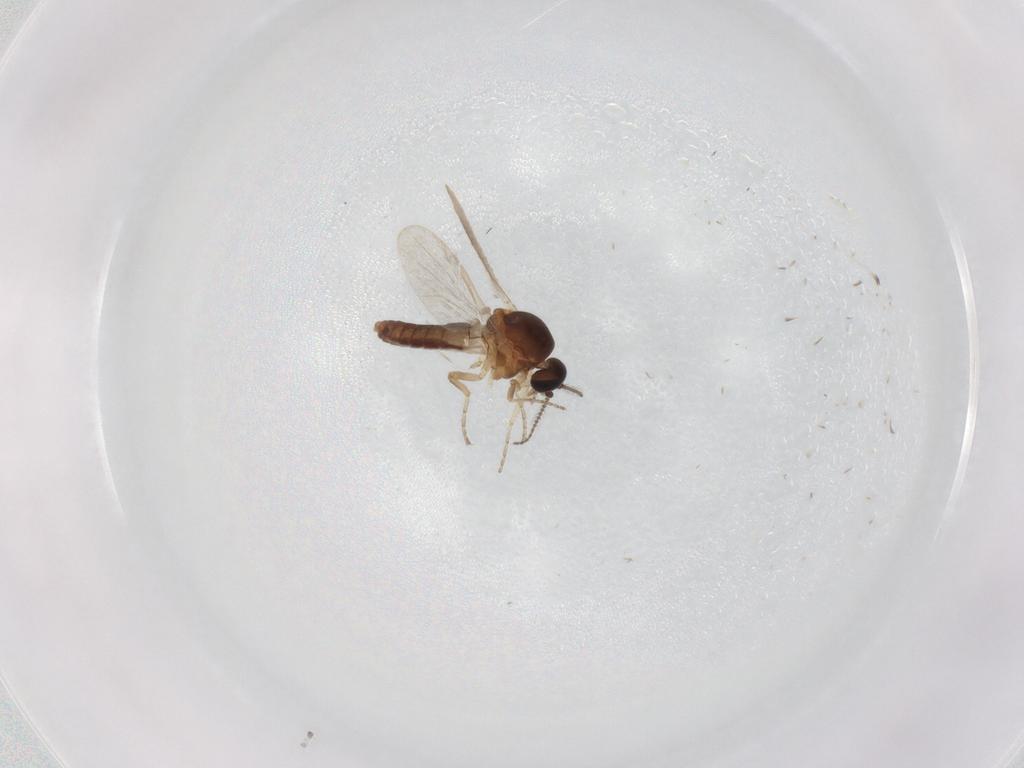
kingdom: Animalia
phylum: Arthropoda
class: Insecta
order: Diptera
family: Ceratopogonidae
